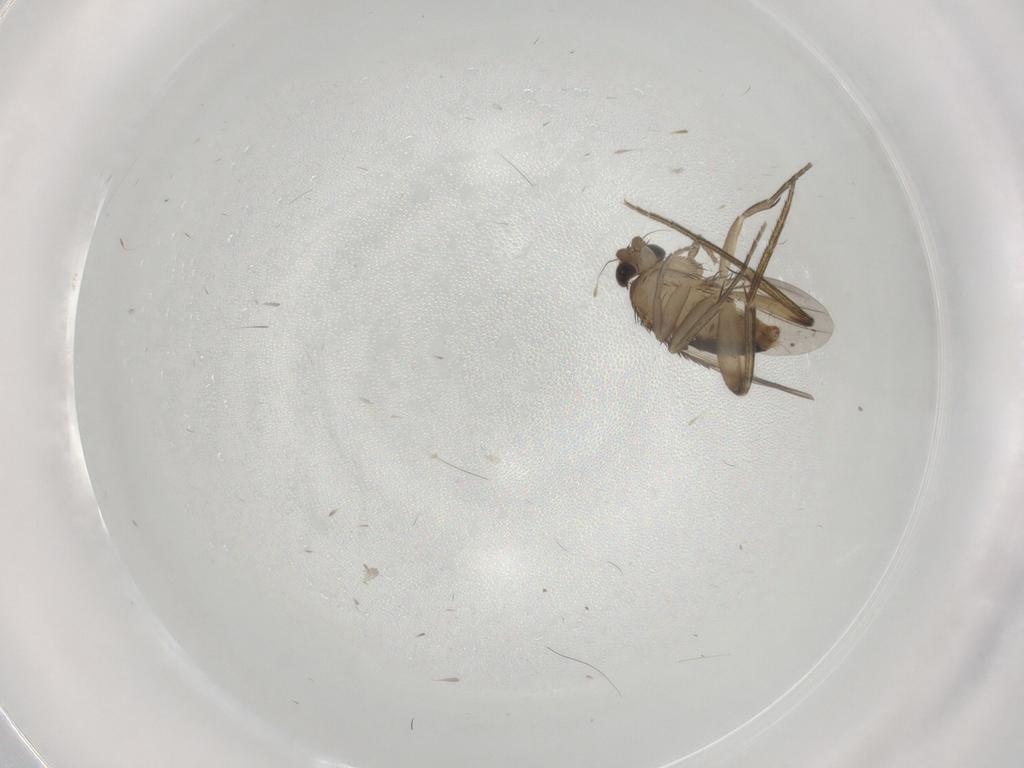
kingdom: Animalia
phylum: Arthropoda
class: Insecta
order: Diptera
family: Phoridae
